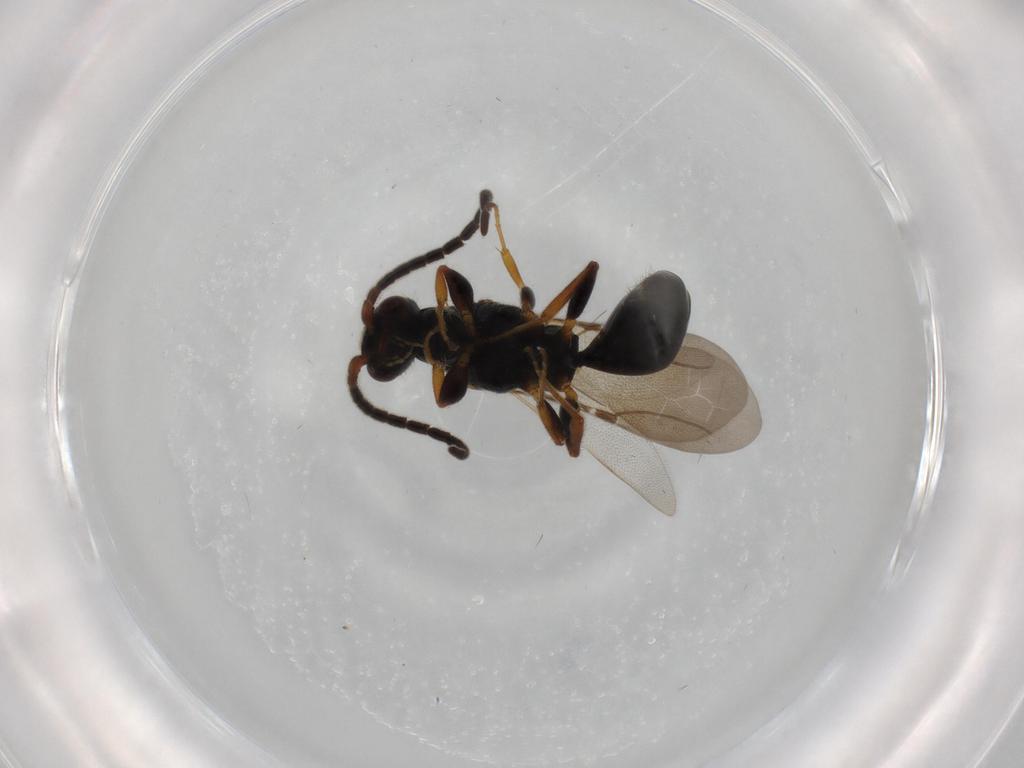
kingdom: Animalia
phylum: Arthropoda
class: Insecta
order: Hymenoptera
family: Bethylidae
